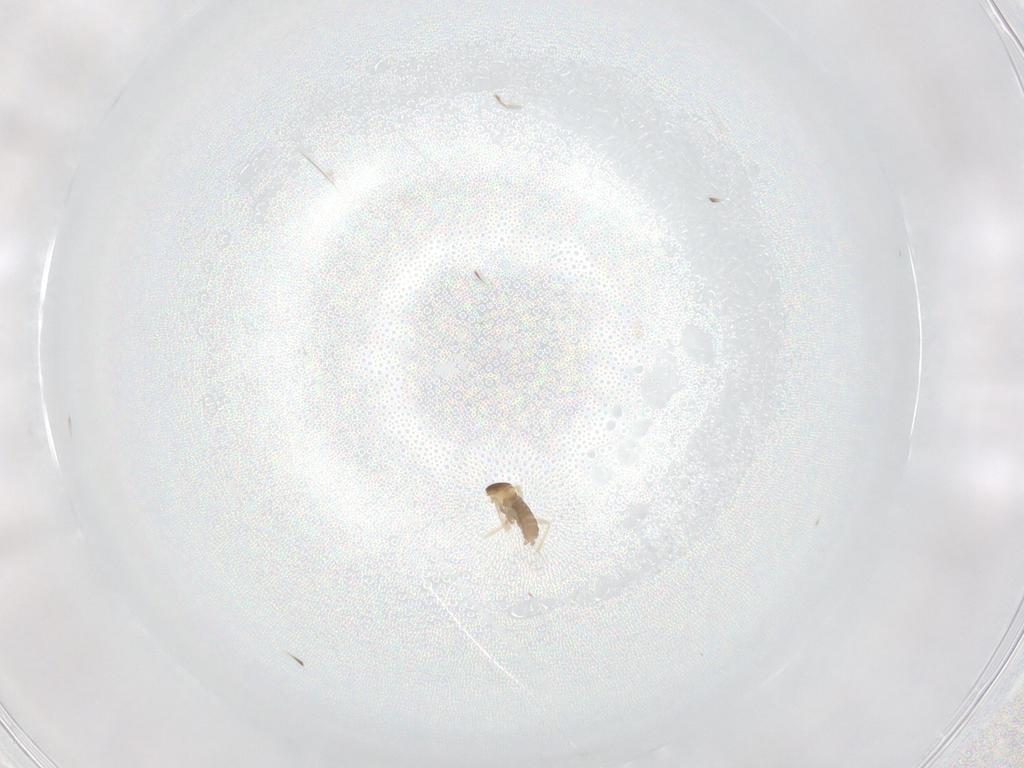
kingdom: Animalia
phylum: Arthropoda
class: Insecta
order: Diptera
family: Cecidomyiidae
